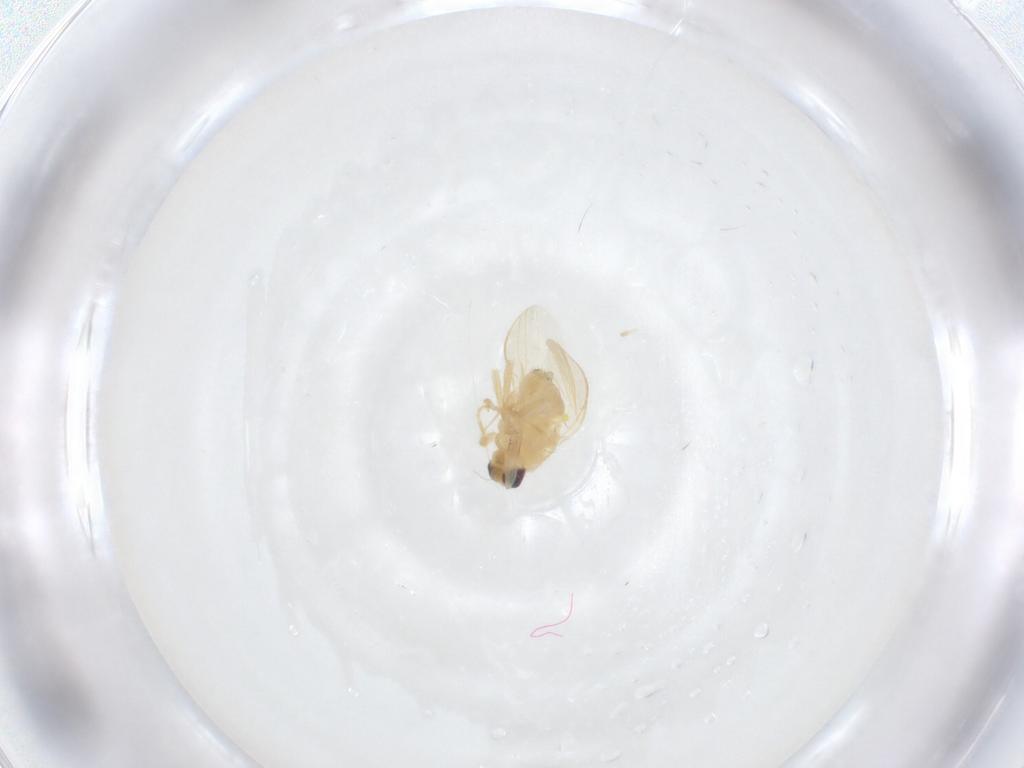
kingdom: Animalia
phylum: Arthropoda
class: Insecta
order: Diptera
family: Chyromyidae
